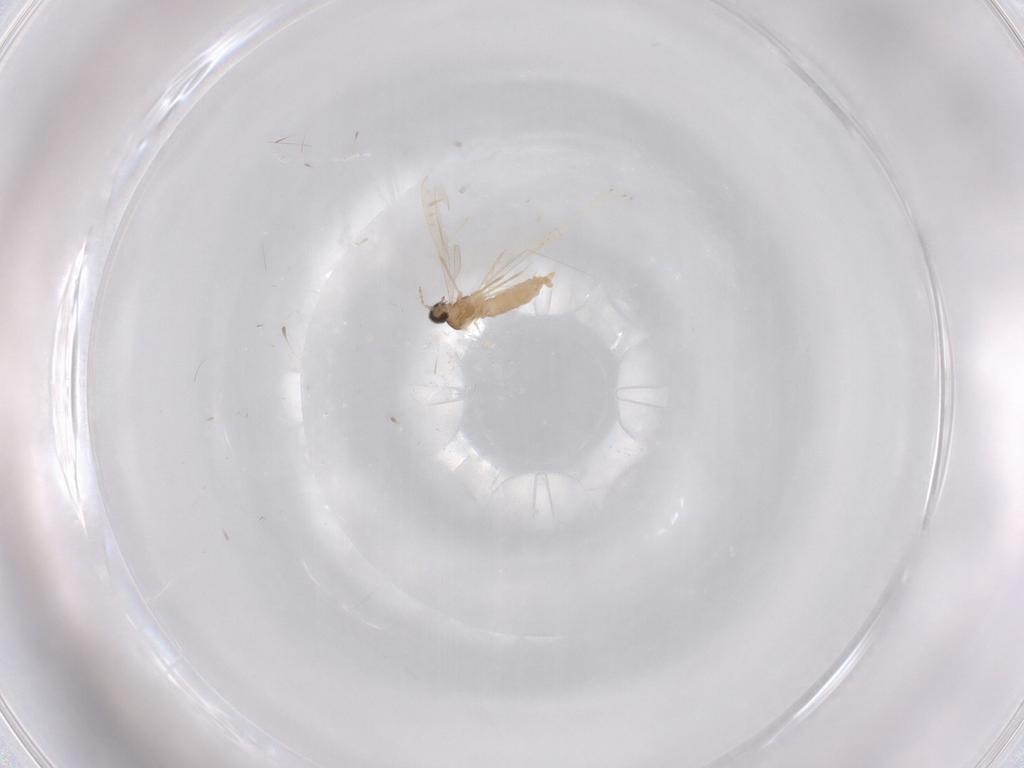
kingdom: Animalia
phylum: Arthropoda
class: Insecta
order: Diptera
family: Cecidomyiidae
